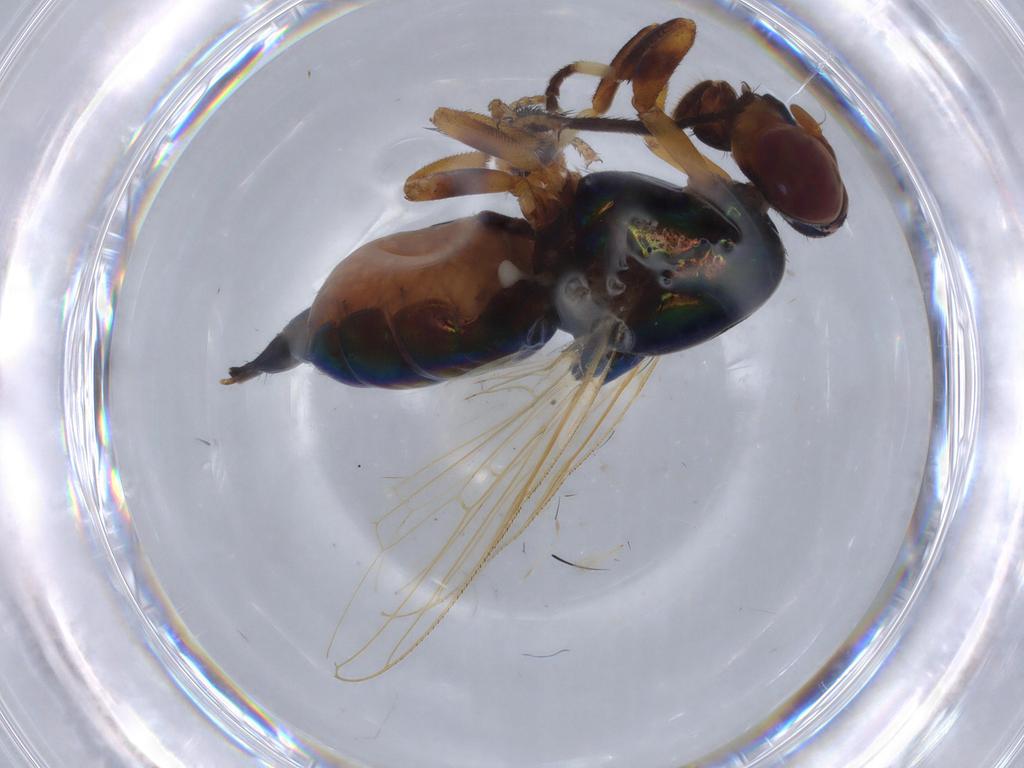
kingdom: Animalia
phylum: Arthropoda
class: Insecta
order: Diptera
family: Ulidiidae
